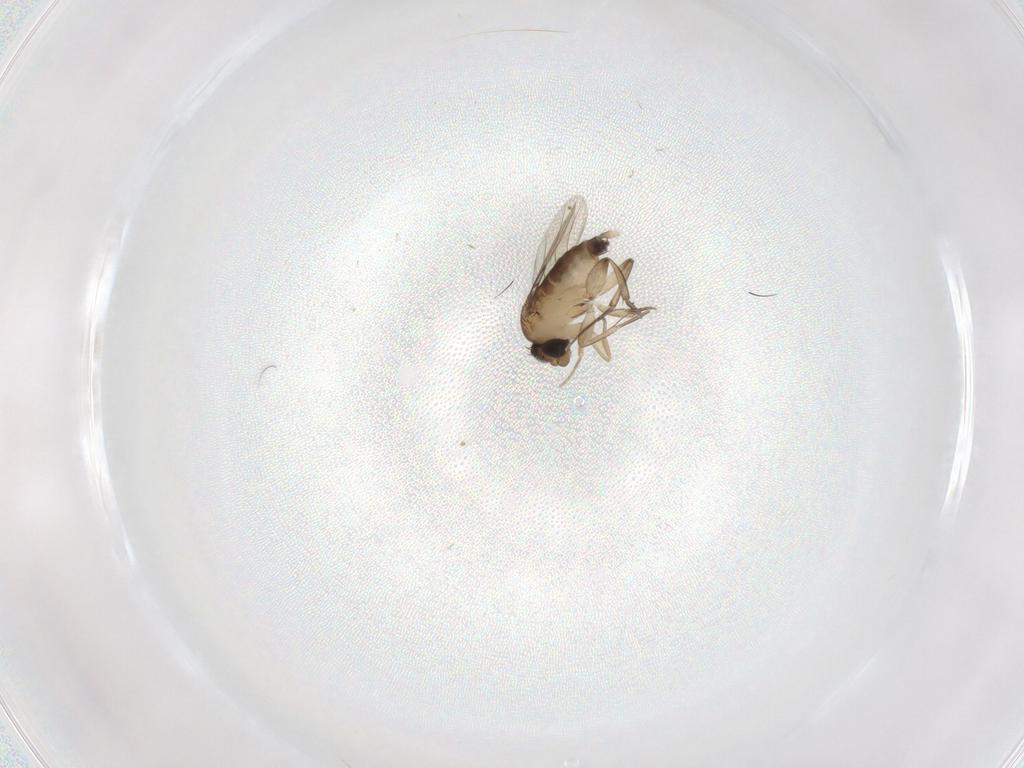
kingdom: Animalia
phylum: Arthropoda
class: Insecta
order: Diptera
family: Phoridae
